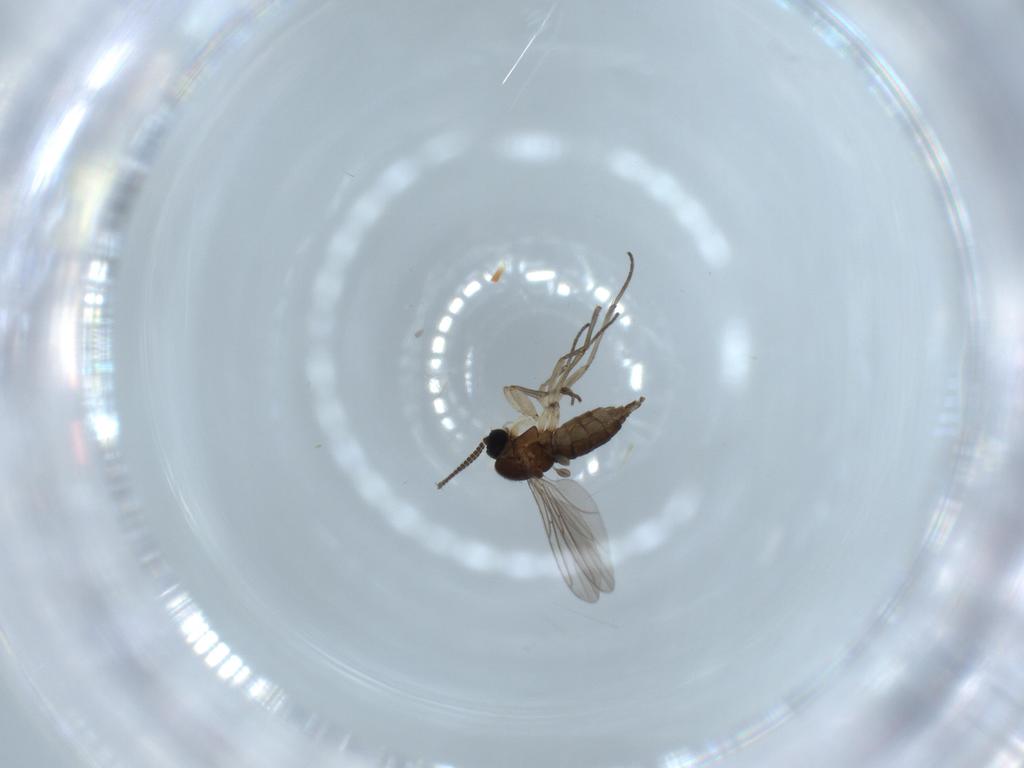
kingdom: Animalia
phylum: Arthropoda
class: Insecta
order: Diptera
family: Sciaridae
